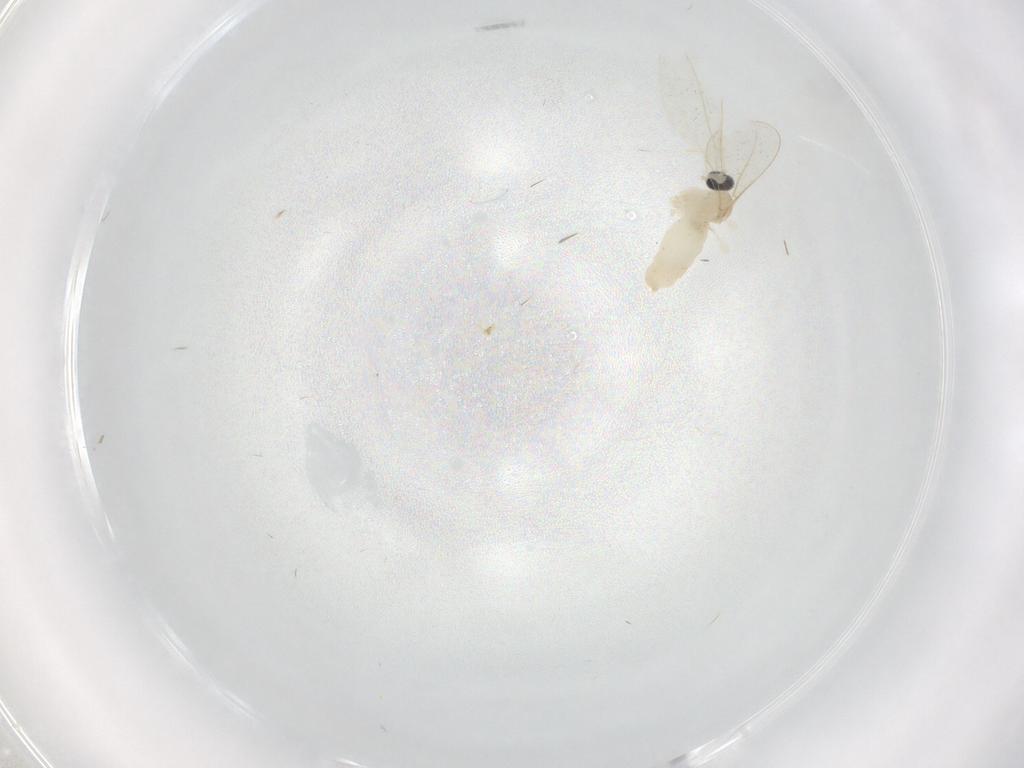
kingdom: Animalia
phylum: Arthropoda
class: Insecta
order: Diptera
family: Cecidomyiidae
